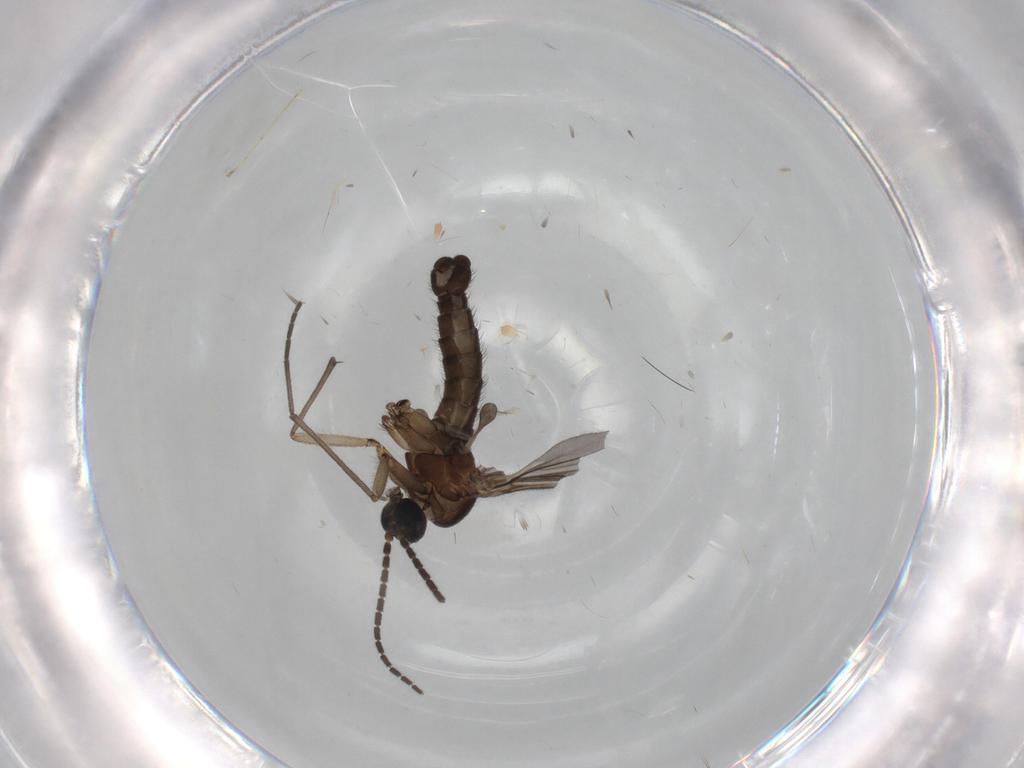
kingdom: Animalia
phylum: Arthropoda
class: Insecta
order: Diptera
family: Sciaridae
